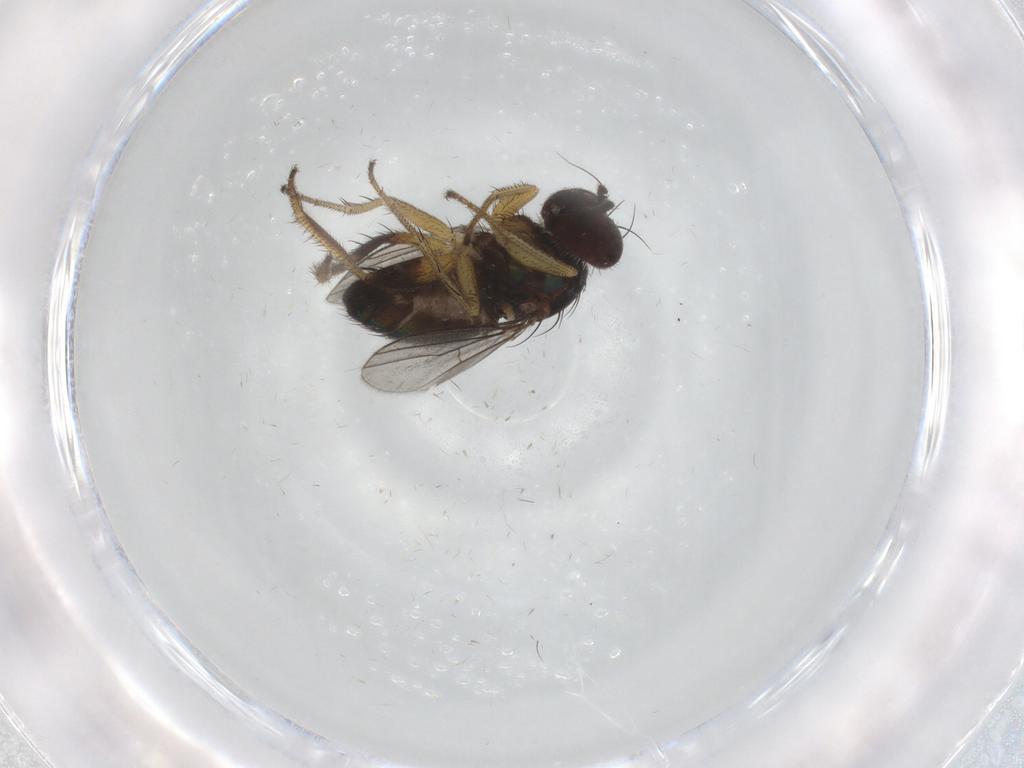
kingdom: Animalia
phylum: Arthropoda
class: Insecta
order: Diptera
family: Dolichopodidae
